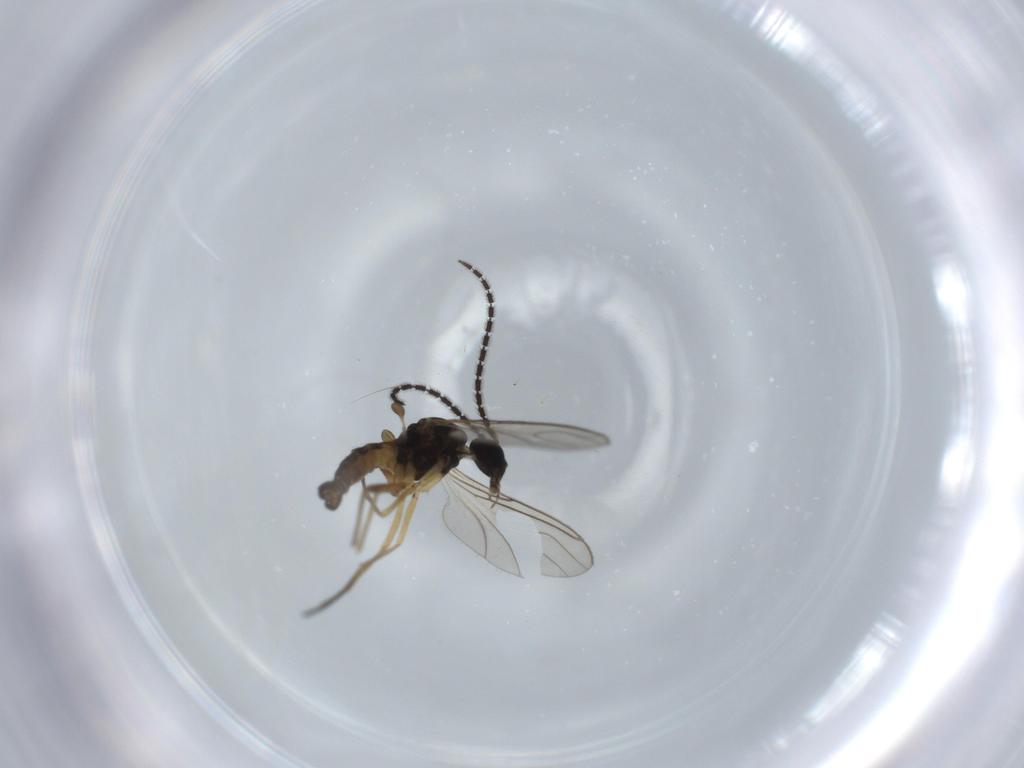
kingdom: Animalia
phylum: Arthropoda
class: Insecta
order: Diptera
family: Sciaridae
